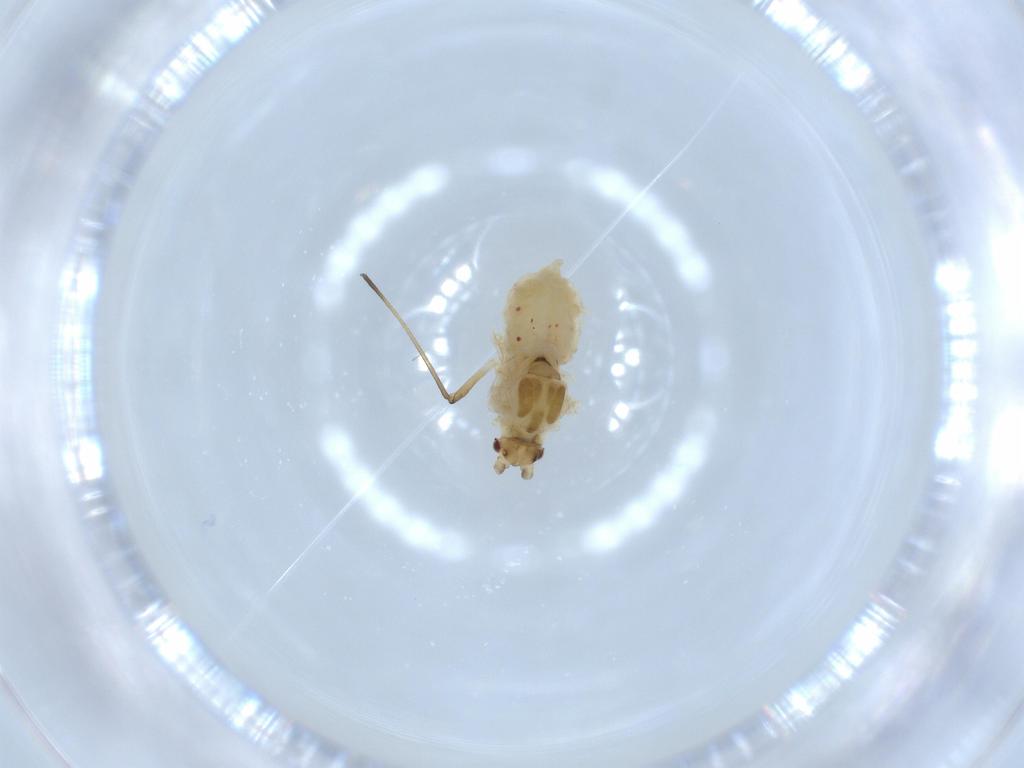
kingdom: Animalia
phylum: Arthropoda
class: Insecta
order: Hemiptera
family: Aphididae
